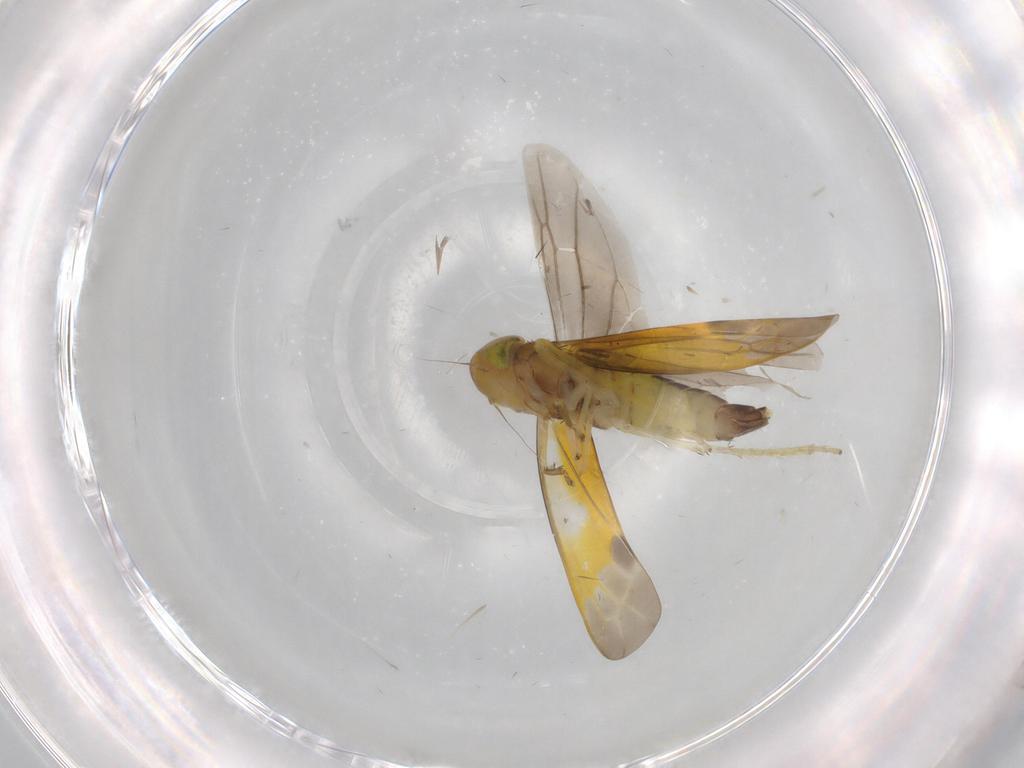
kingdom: Animalia
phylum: Arthropoda
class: Insecta
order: Hemiptera
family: Cicadellidae
